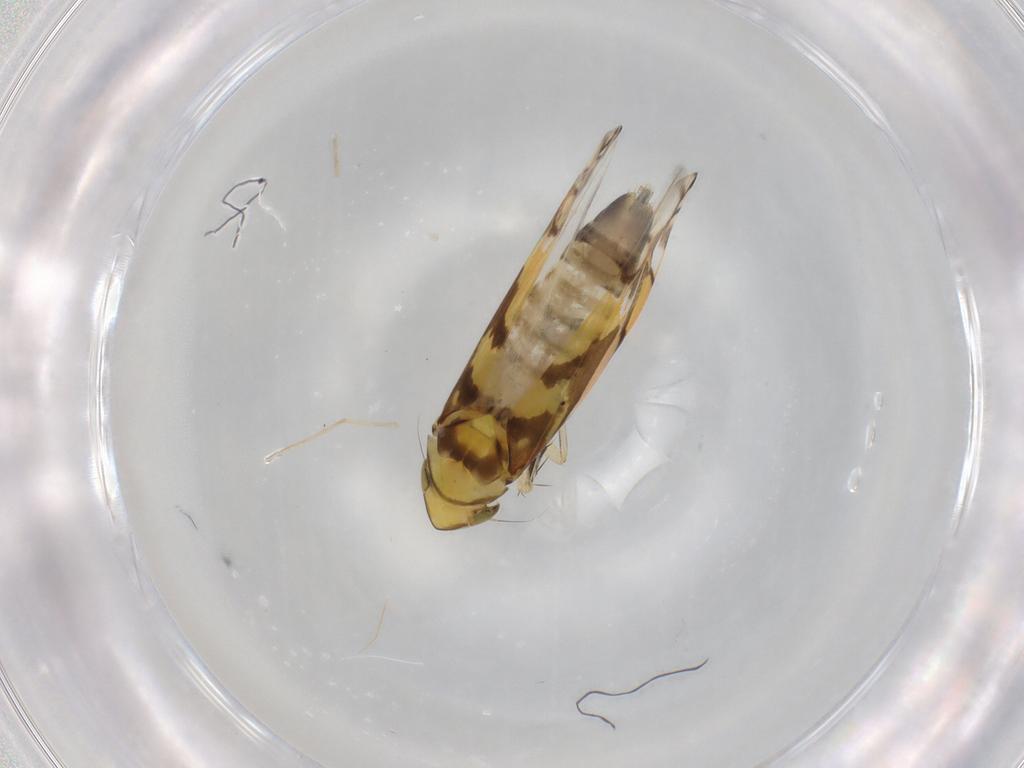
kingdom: Animalia
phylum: Arthropoda
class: Insecta
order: Hemiptera
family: Cicadellidae
